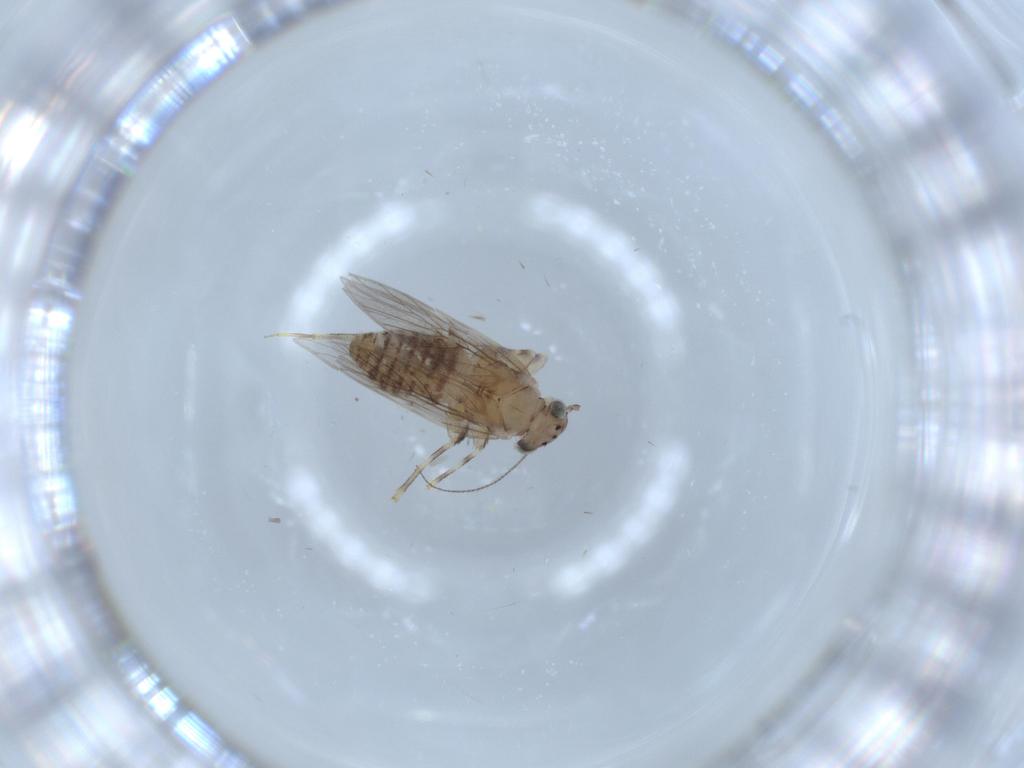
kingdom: Animalia
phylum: Arthropoda
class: Insecta
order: Psocodea
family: Lepidopsocidae
